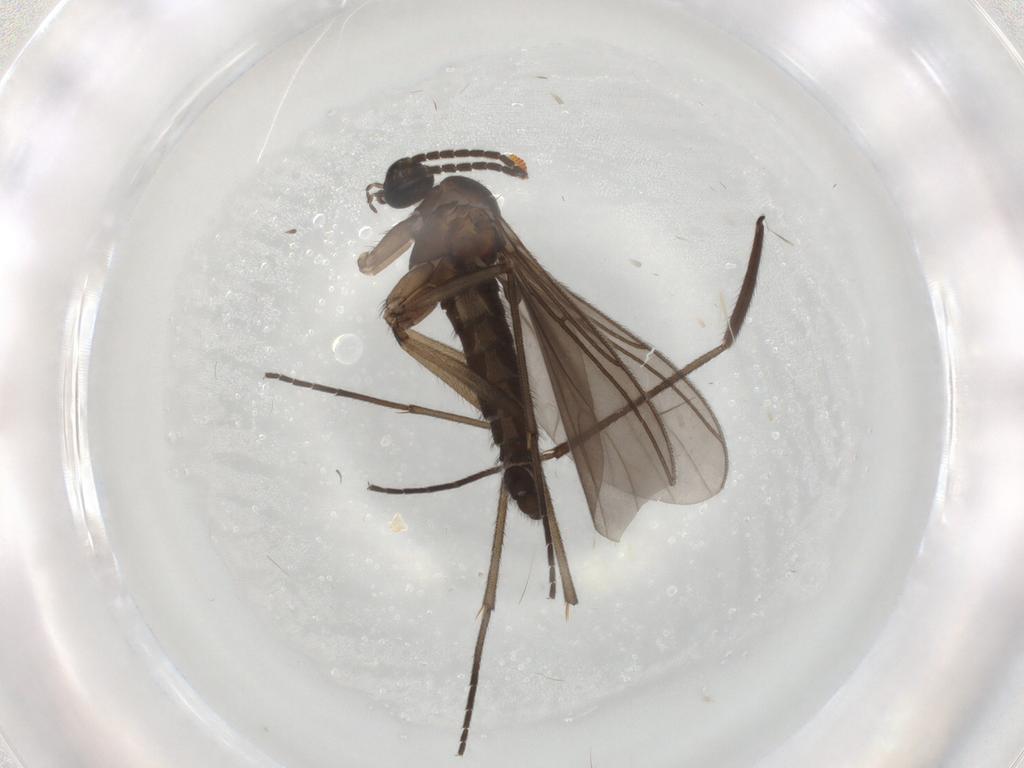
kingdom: Animalia
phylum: Arthropoda
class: Insecta
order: Diptera
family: Sciaridae
